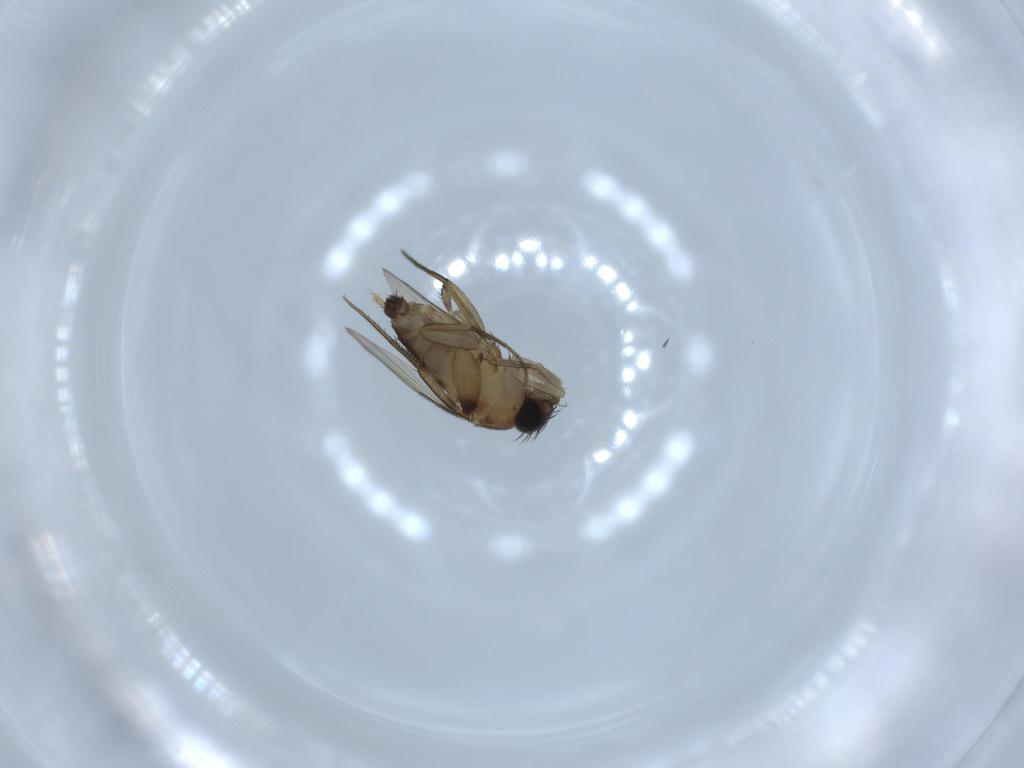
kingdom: Animalia
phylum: Arthropoda
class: Insecta
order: Diptera
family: Phoridae
